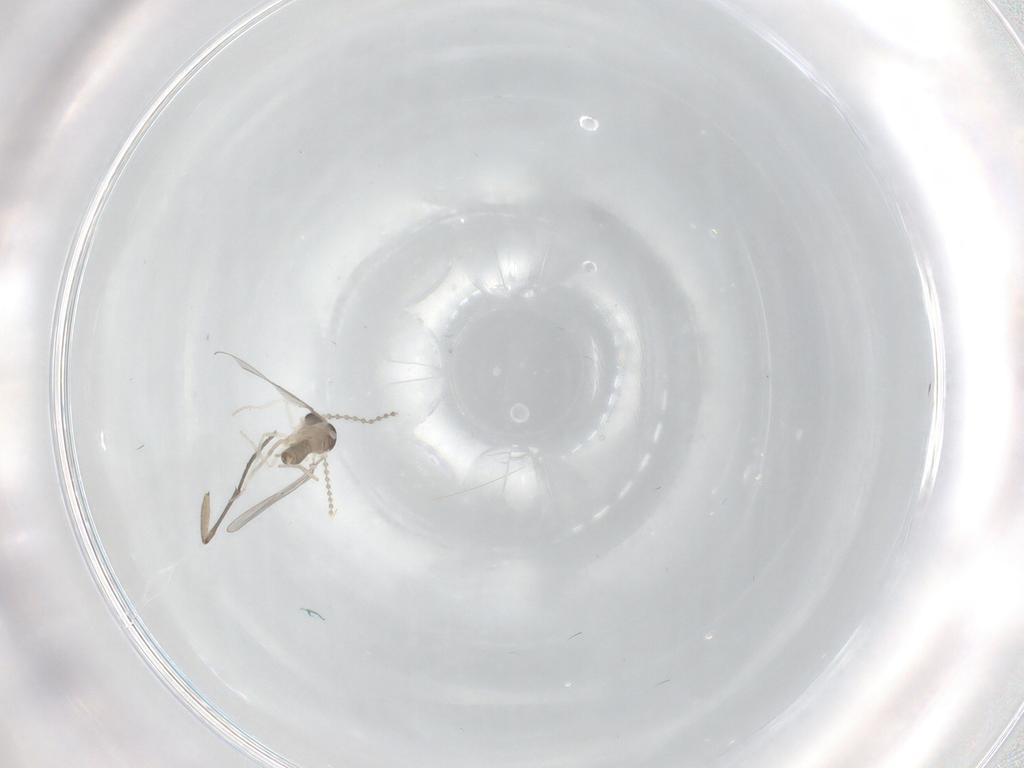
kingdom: Animalia
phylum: Arthropoda
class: Insecta
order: Diptera
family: Cecidomyiidae
